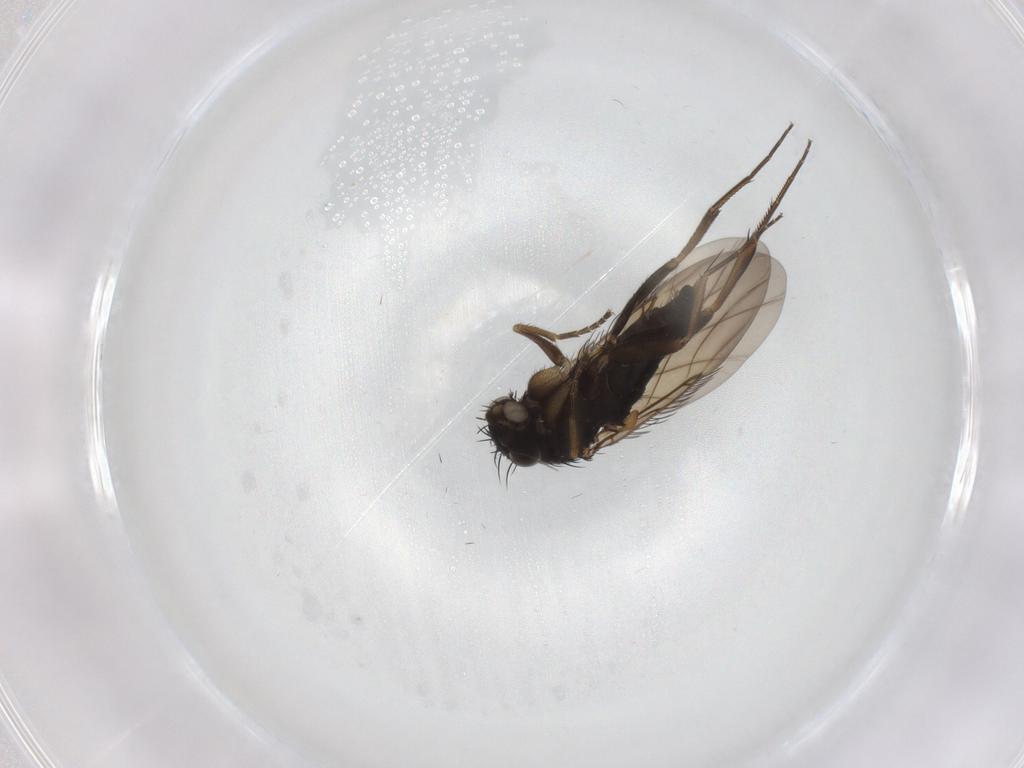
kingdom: Animalia
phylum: Arthropoda
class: Insecta
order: Diptera
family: Phoridae
